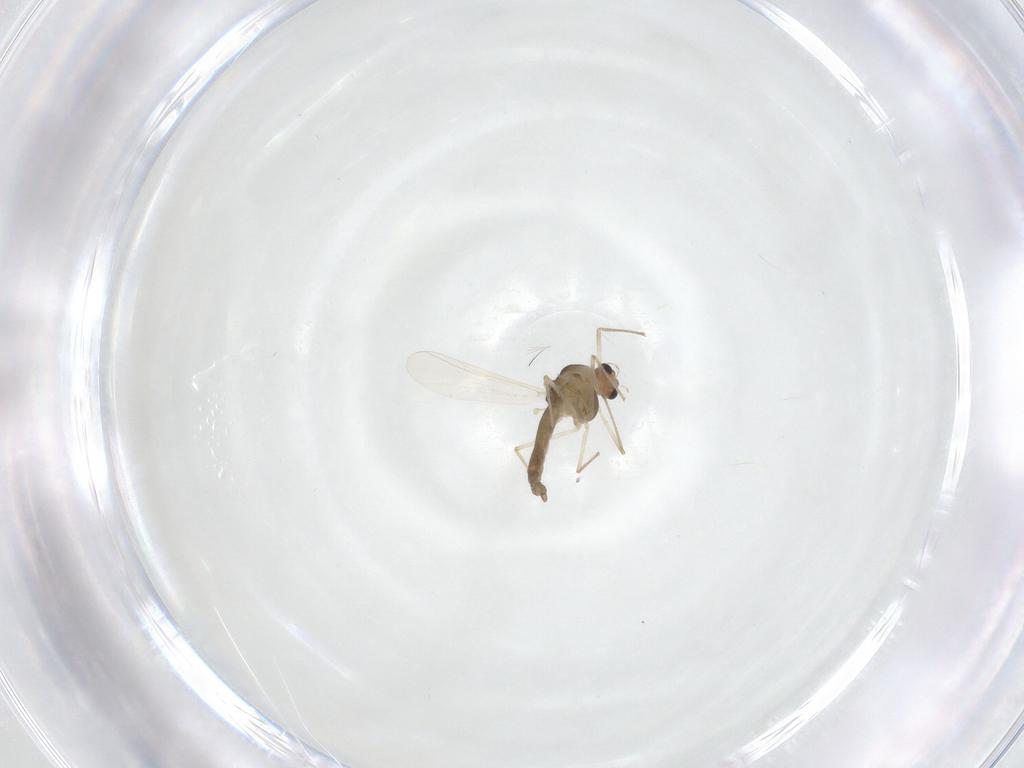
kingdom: Animalia
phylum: Arthropoda
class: Insecta
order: Diptera
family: Chironomidae
